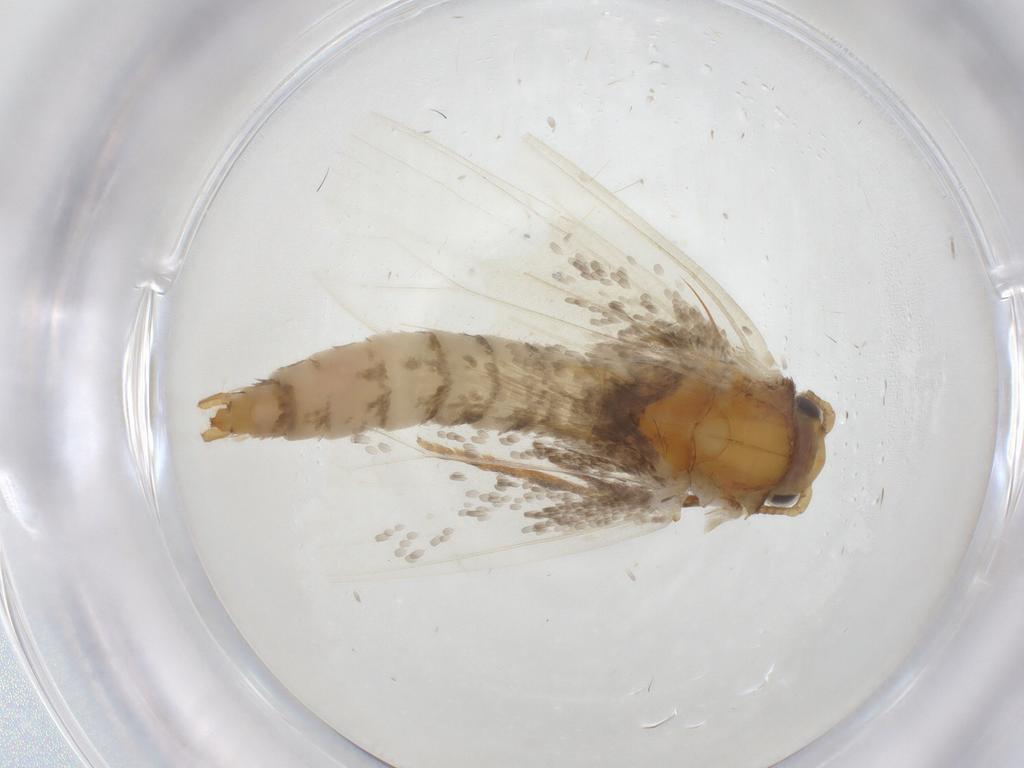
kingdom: Animalia
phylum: Arthropoda
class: Insecta
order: Lepidoptera
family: Tineidae
